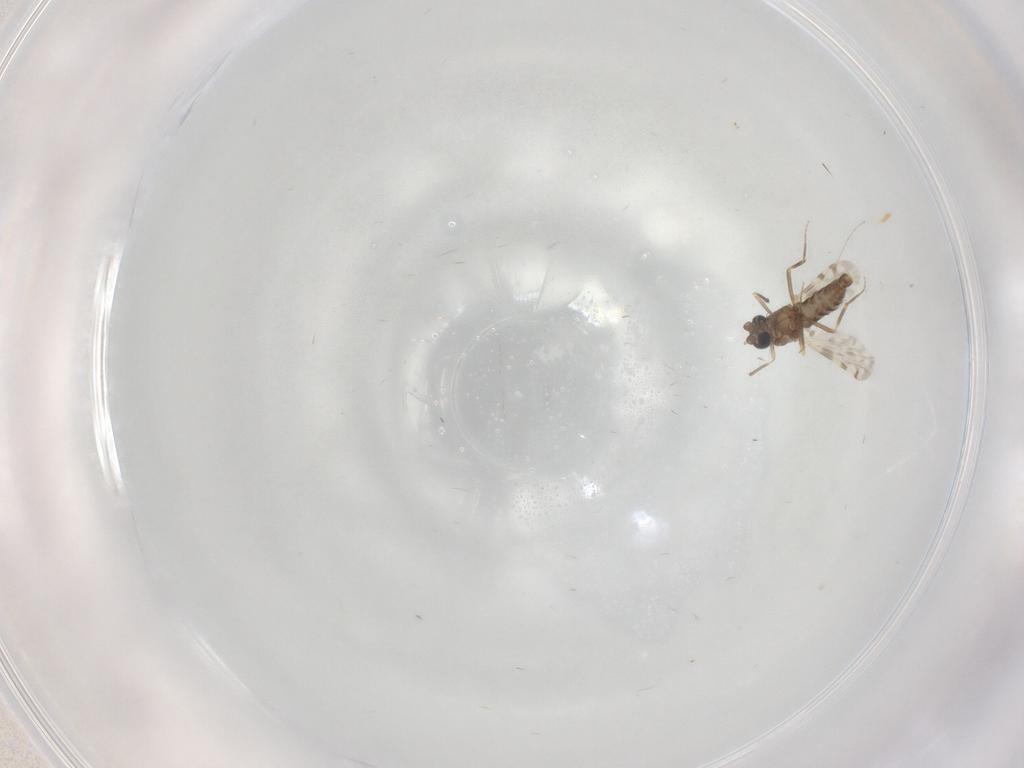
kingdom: Animalia
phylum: Arthropoda
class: Insecta
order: Diptera
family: Ceratopogonidae
